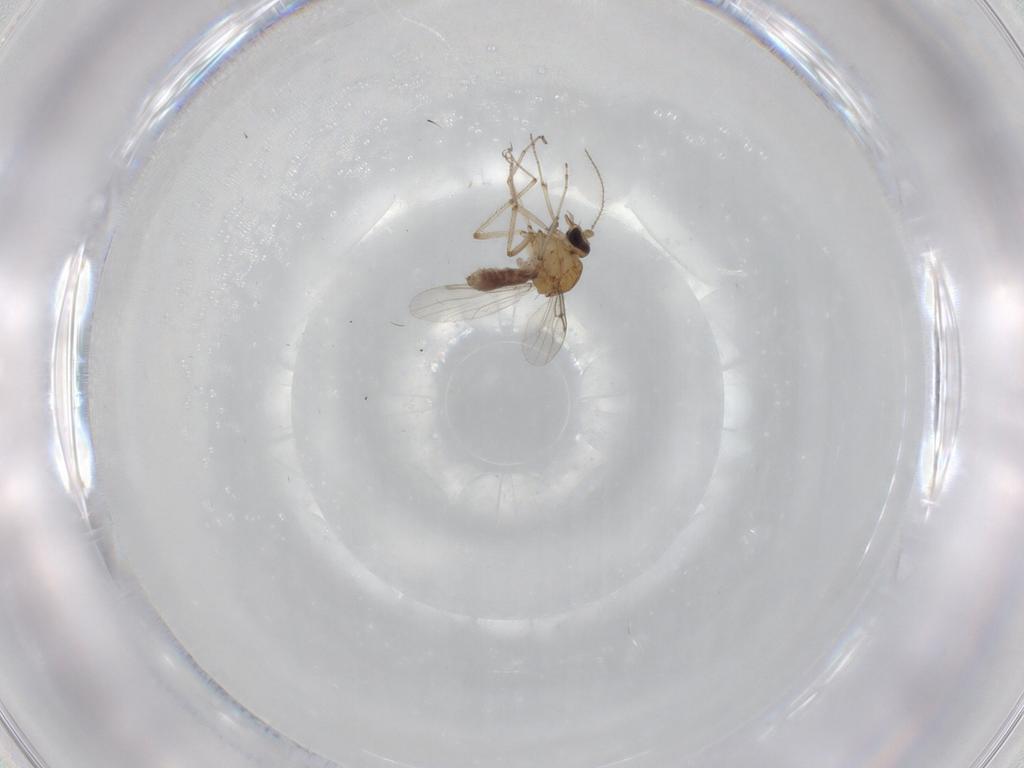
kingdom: Animalia
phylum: Arthropoda
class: Insecta
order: Diptera
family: Ceratopogonidae
